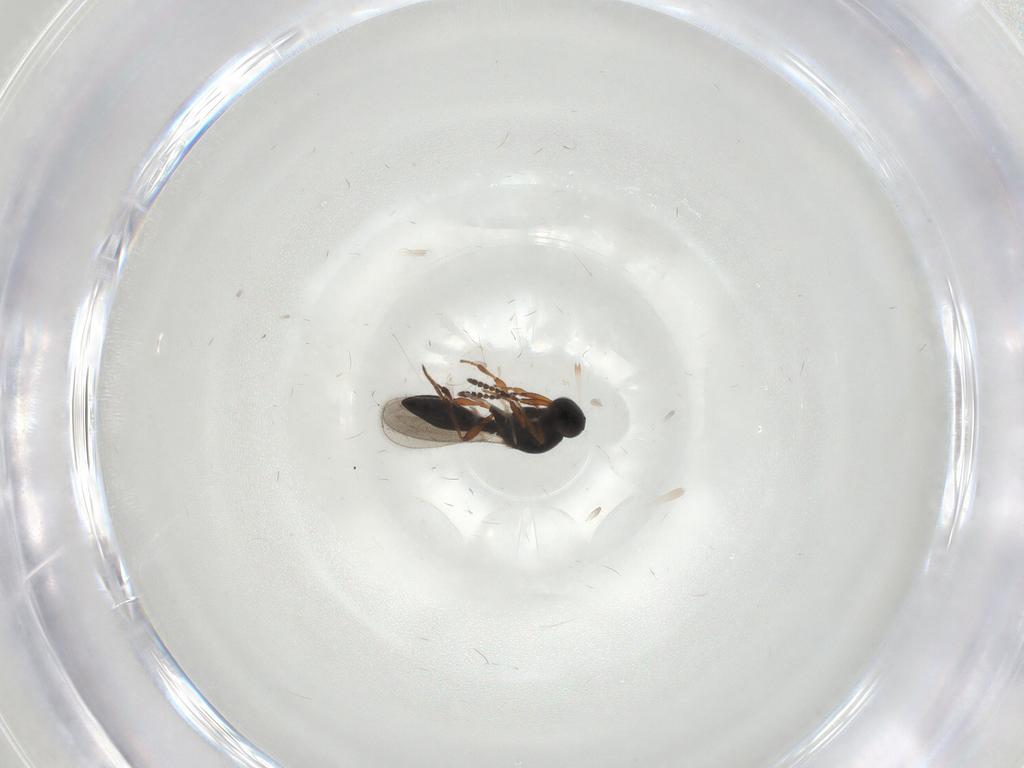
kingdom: Animalia
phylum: Arthropoda
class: Insecta
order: Hymenoptera
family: Platygastridae
